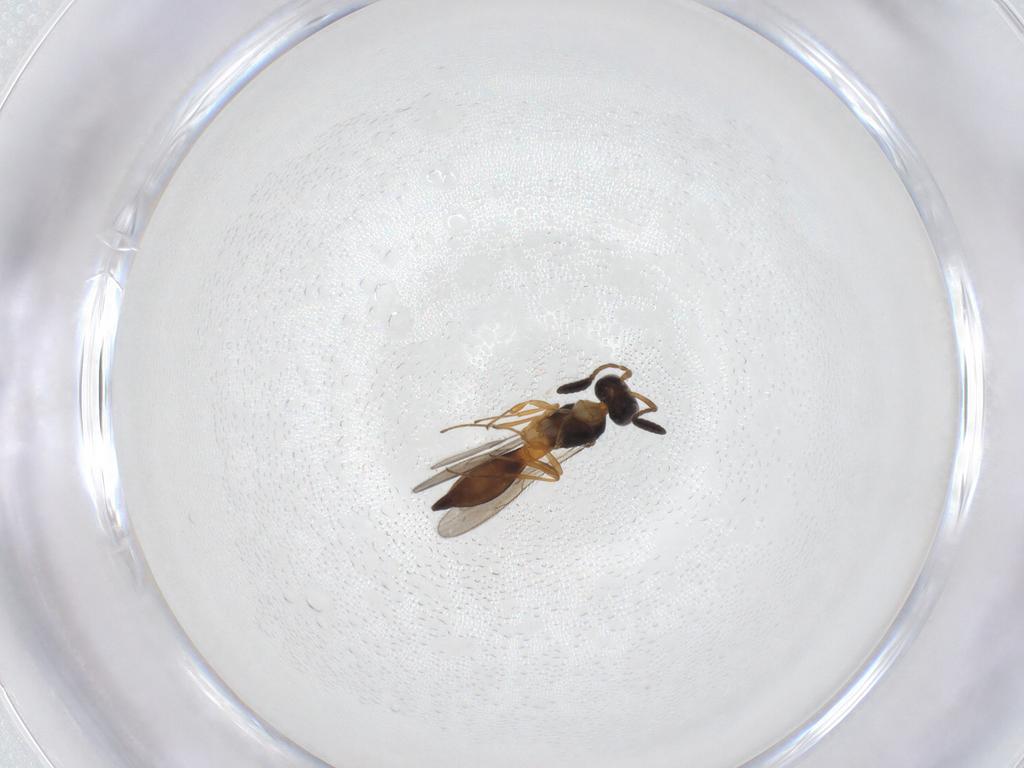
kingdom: Animalia
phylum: Arthropoda
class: Insecta
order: Hymenoptera
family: Scelionidae
